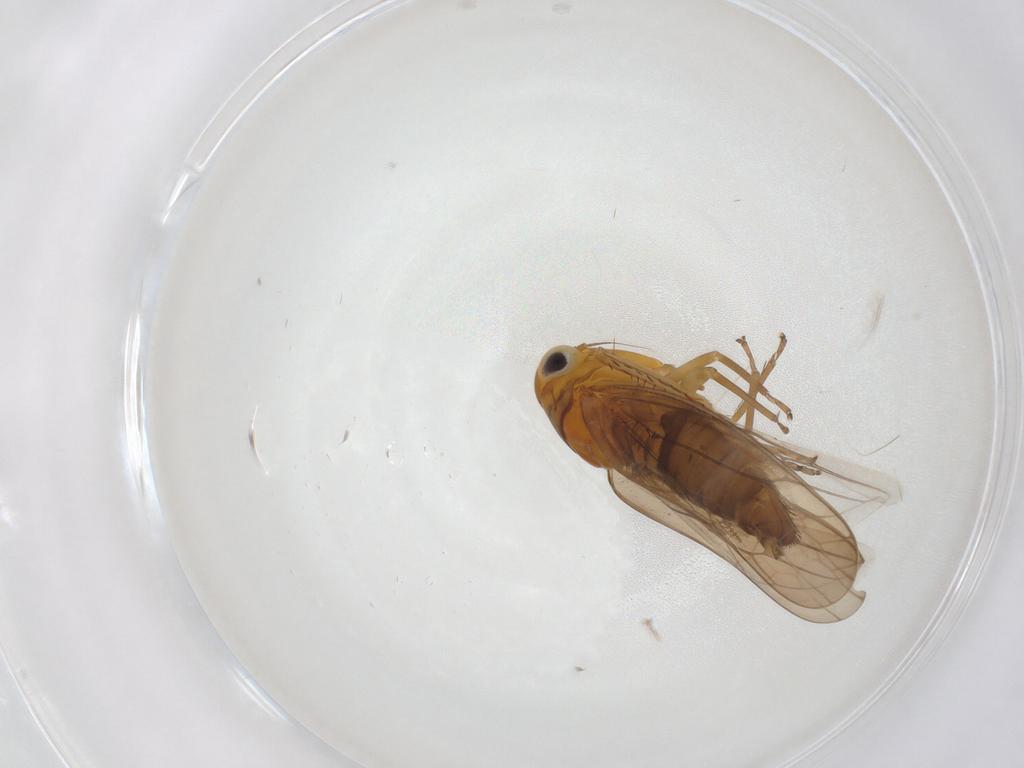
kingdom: Animalia
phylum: Arthropoda
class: Insecta
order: Hemiptera
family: Cicadellidae
